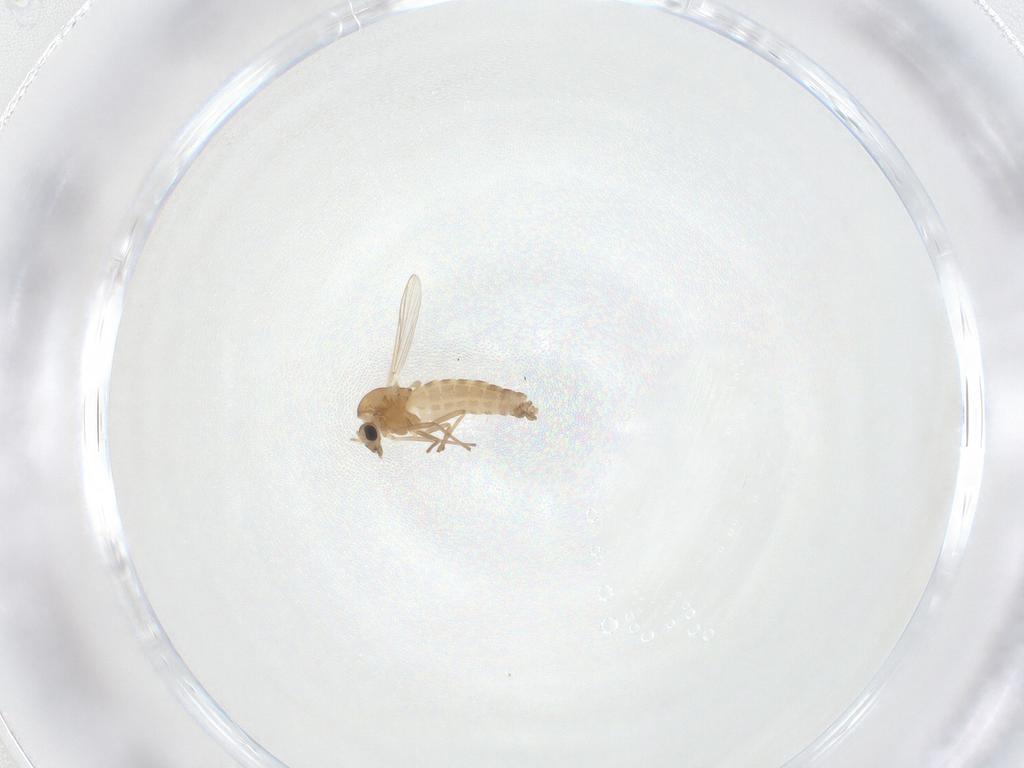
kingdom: Animalia
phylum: Arthropoda
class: Insecta
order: Diptera
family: Chironomidae
